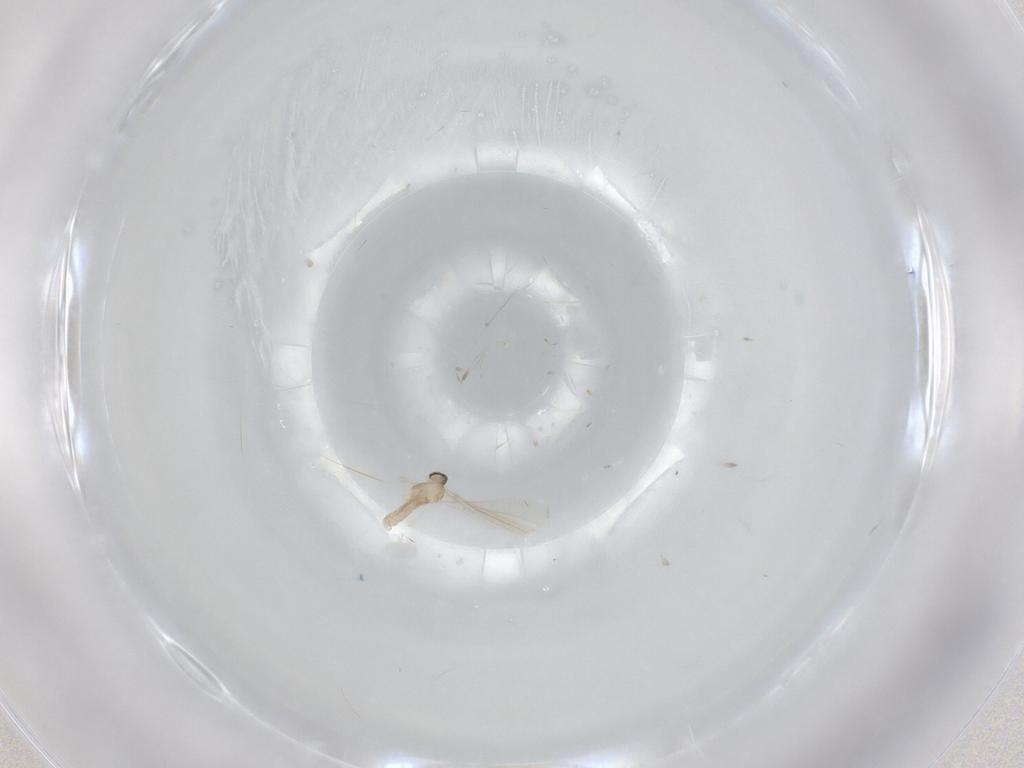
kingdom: Animalia
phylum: Arthropoda
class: Insecta
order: Diptera
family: Cecidomyiidae
